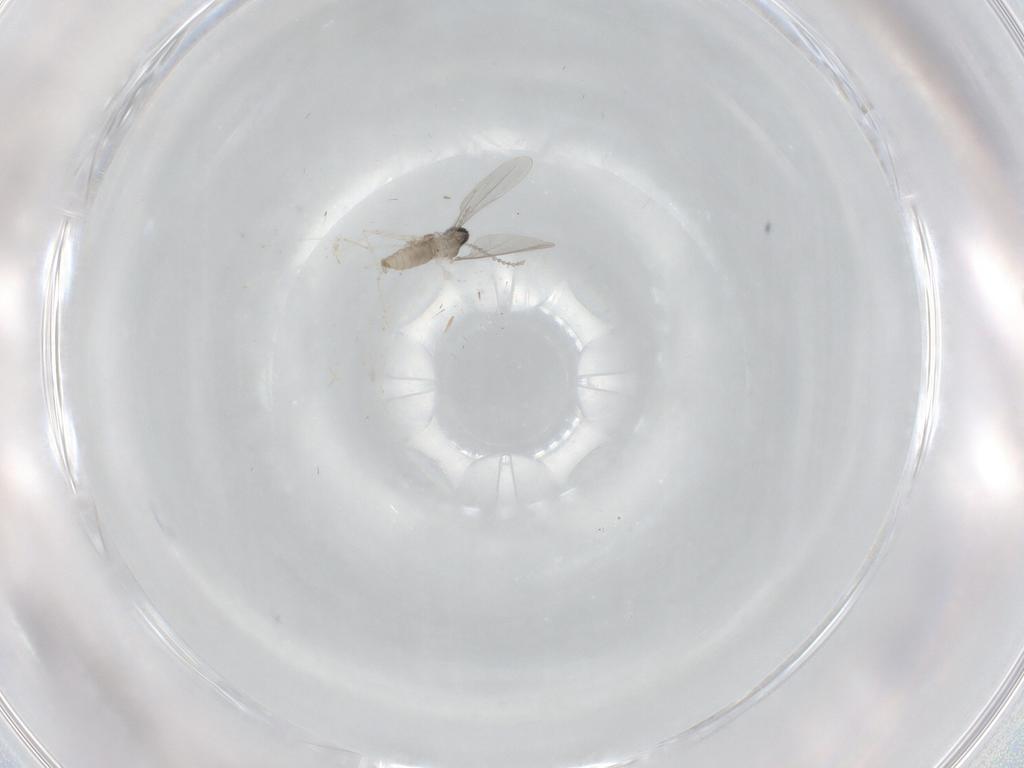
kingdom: Animalia
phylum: Arthropoda
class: Insecta
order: Diptera
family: Cecidomyiidae
